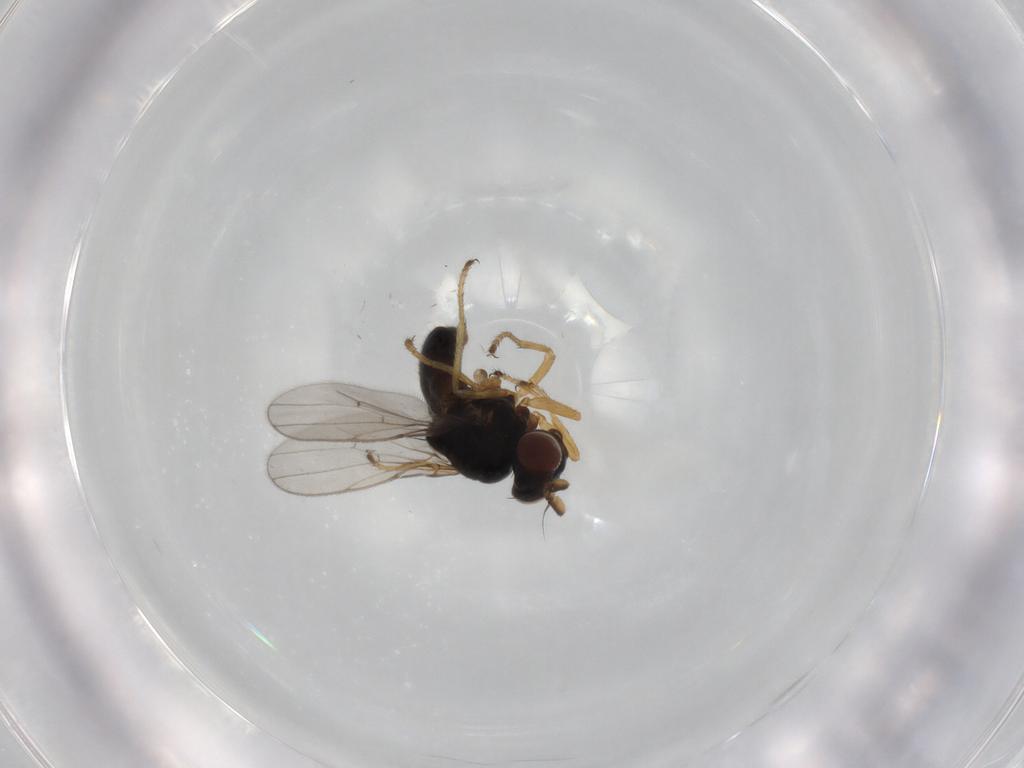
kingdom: Animalia
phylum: Arthropoda
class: Insecta
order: Diptera
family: Ephydridae
